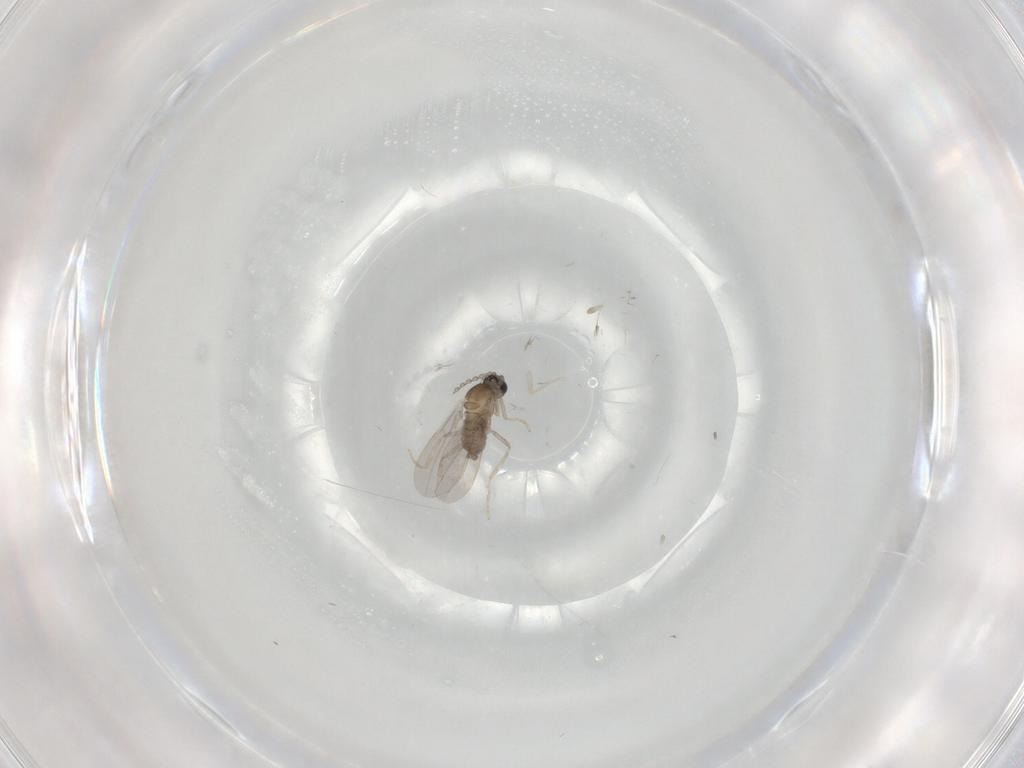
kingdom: Animalia
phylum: Arthropoda
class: Insecta
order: Diptera
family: Cecidomyiidae
